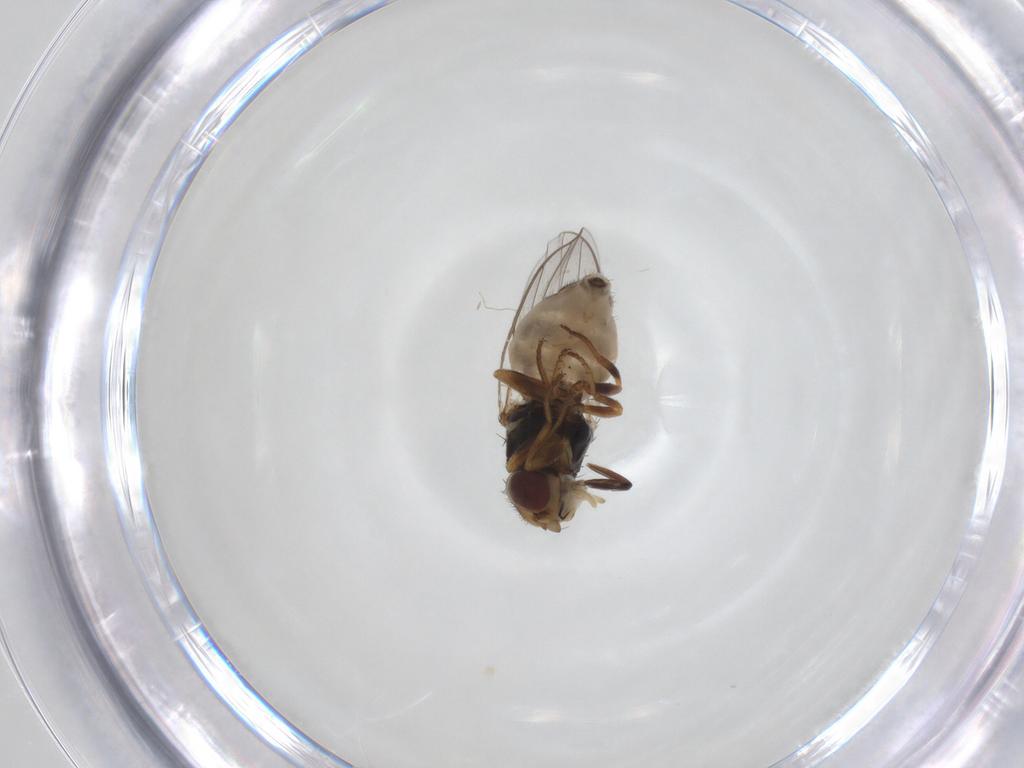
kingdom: Animalia
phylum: Arthropoda
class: Insecta
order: Diptera
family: Chloropidae
